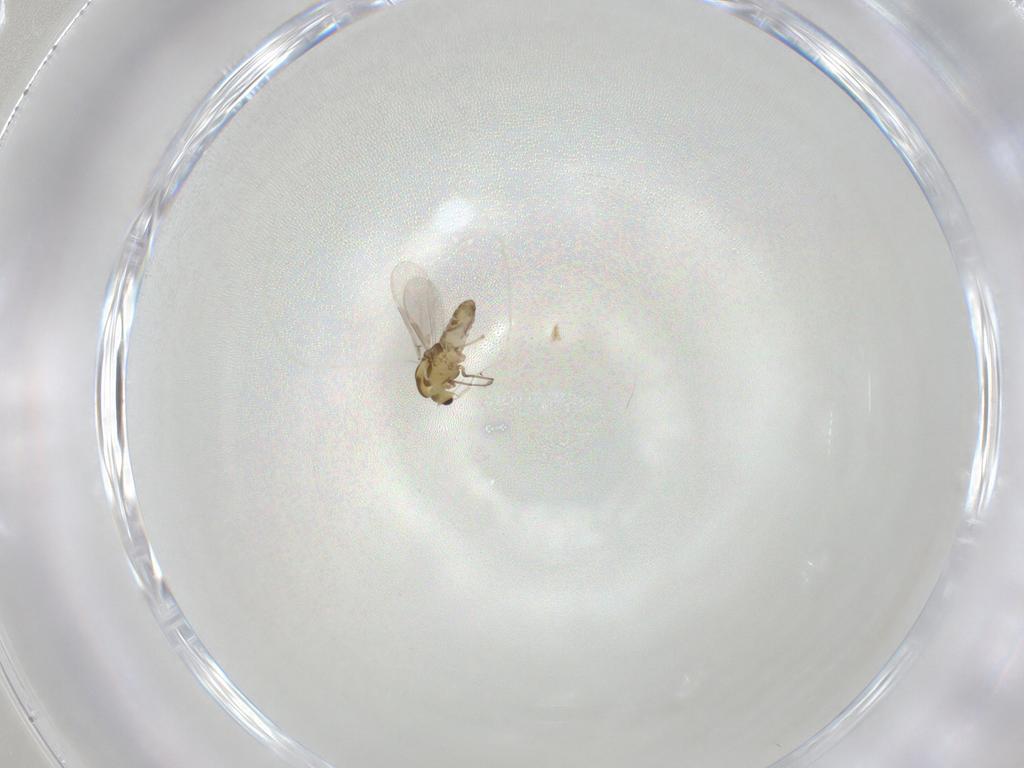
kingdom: Animalia
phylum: Arthropoda
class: Insecta
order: Diptera
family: Chironomidae
